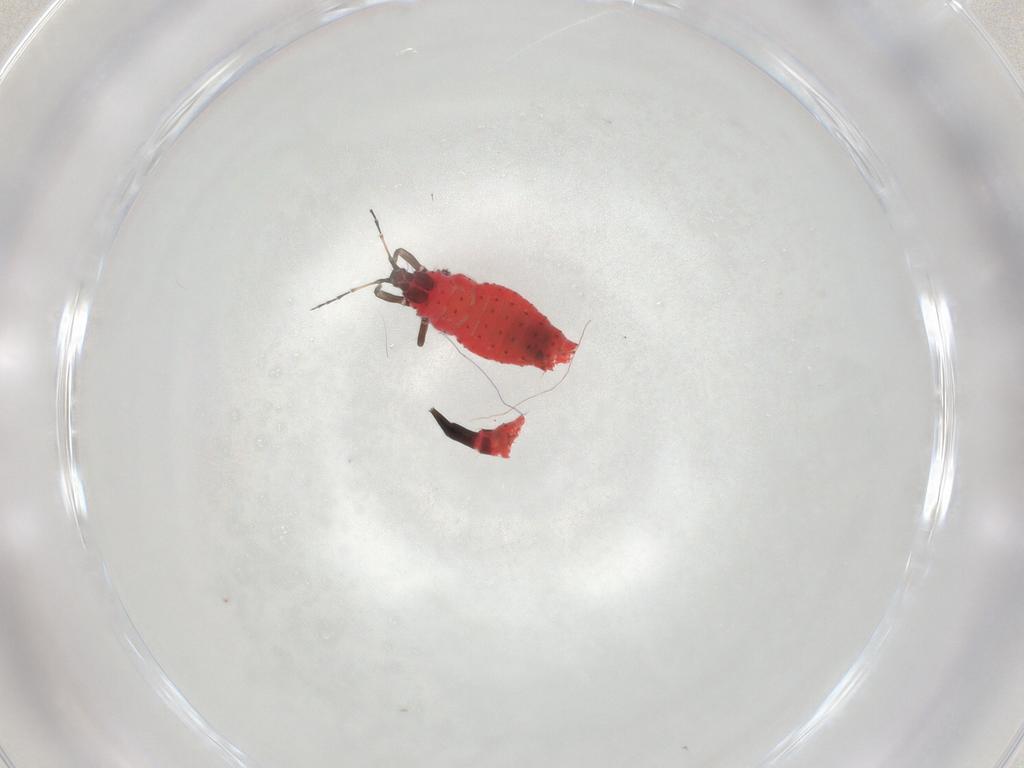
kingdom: Animalia
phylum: Arthropoda
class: Insecta
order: Thysanoptera
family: Phlaeothripidae
